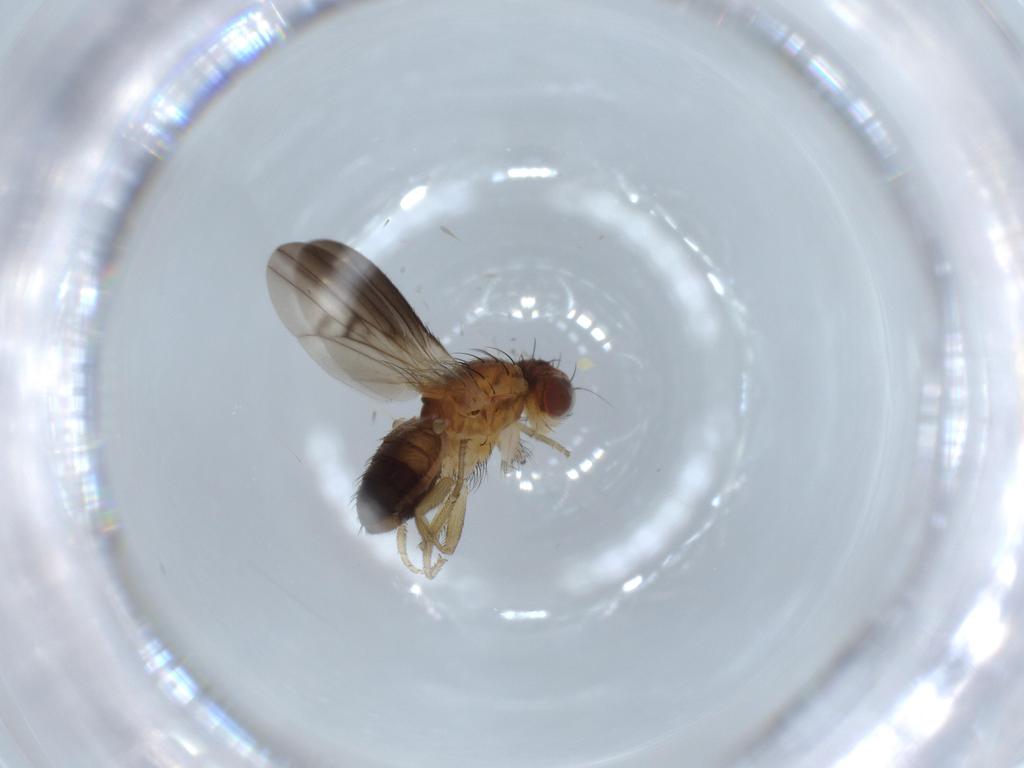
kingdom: Animalia
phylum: Arthropoda
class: Insecta
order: Diptera
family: Heleomyzidae
